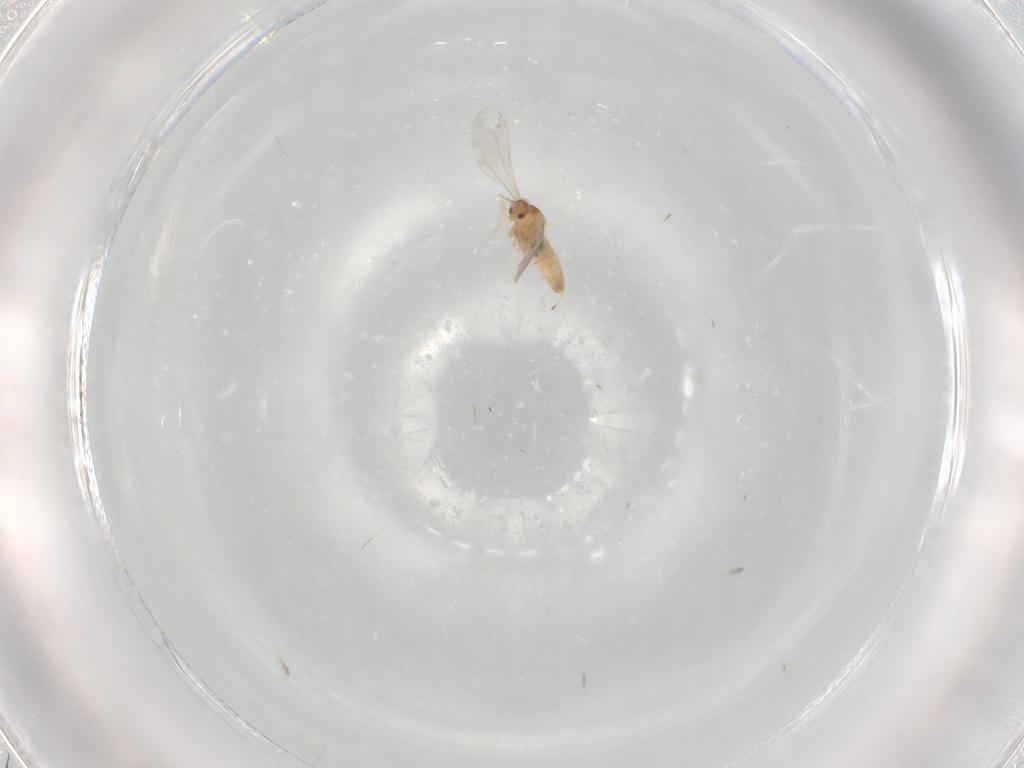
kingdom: Animalia
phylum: Arthropoda
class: Insecta
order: Diptera
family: Cecidomyiidae
